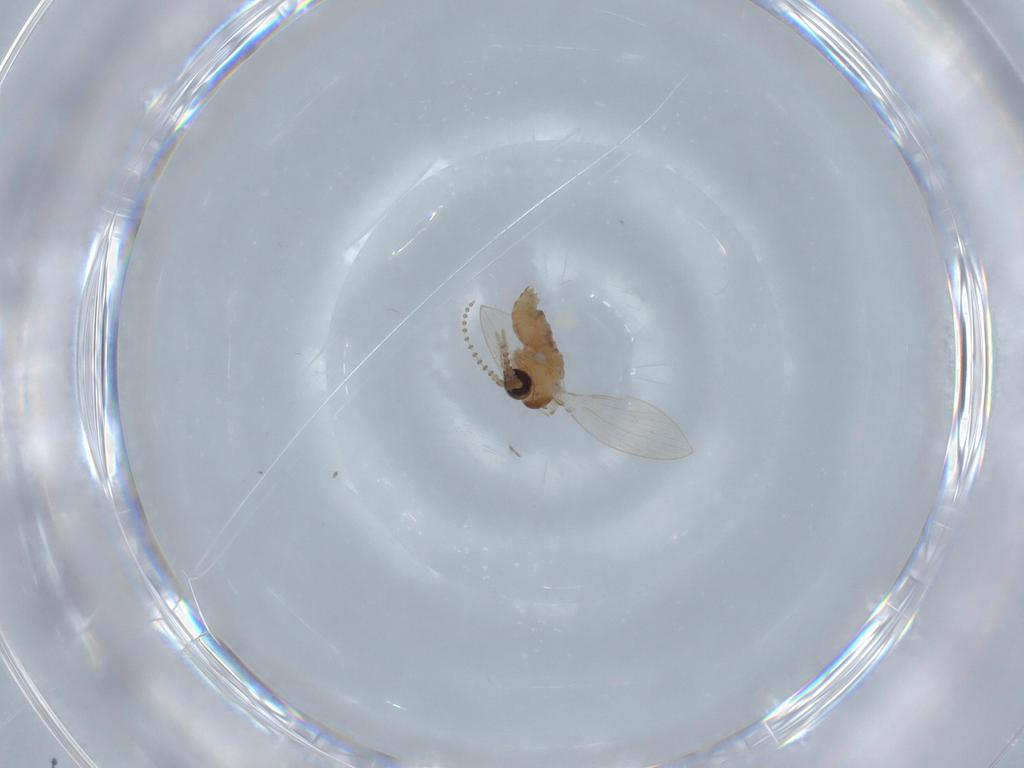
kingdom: Animalia
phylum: Arthropoda
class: Insecta
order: Diptera
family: Psychodidae
